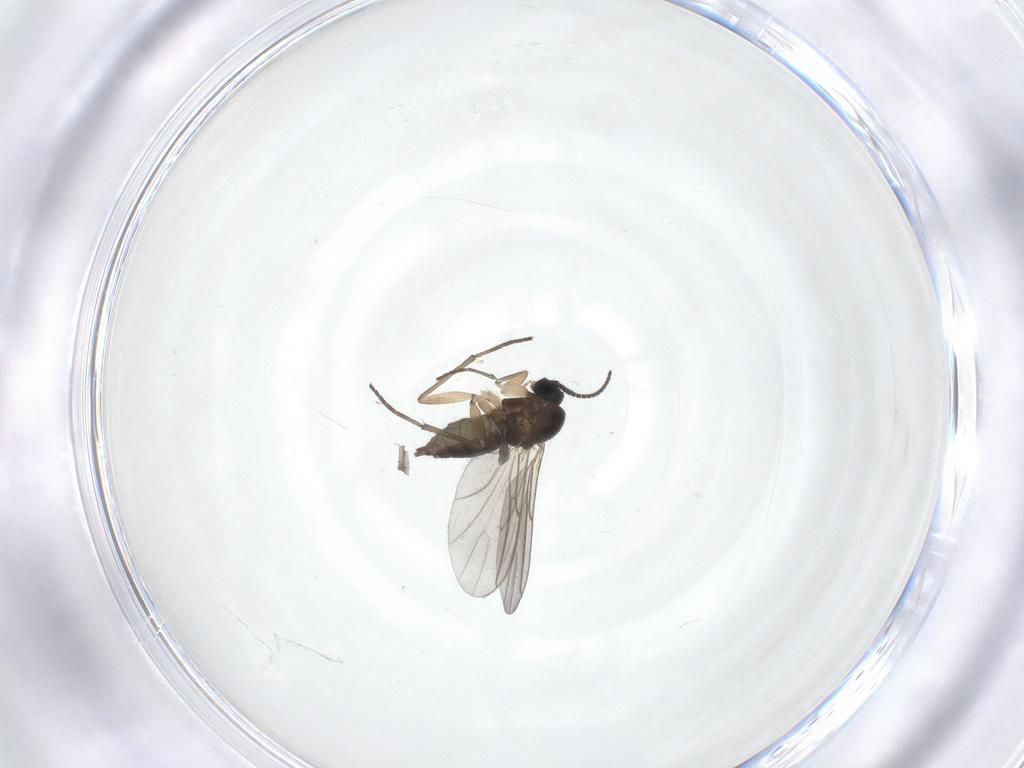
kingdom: Animalia
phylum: Arthropoda
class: Insecta
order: Diptera
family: Sciaridae
